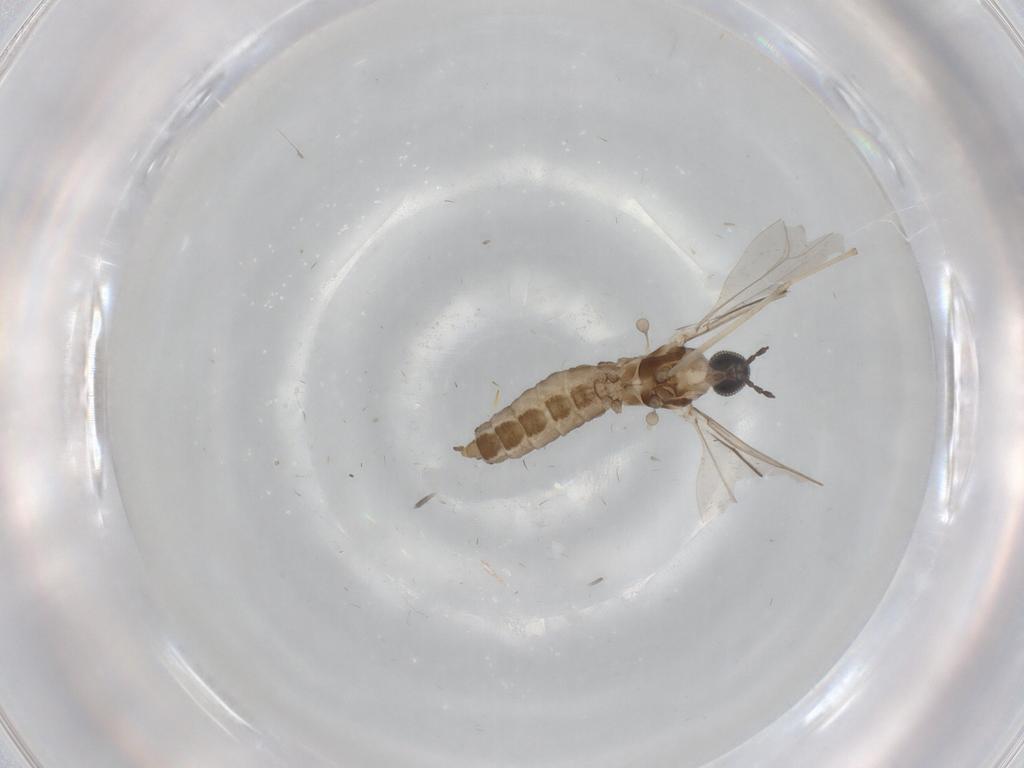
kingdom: Animalia
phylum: Arthropoda
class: Insecta
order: Diptera
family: Cecidomyiidae
